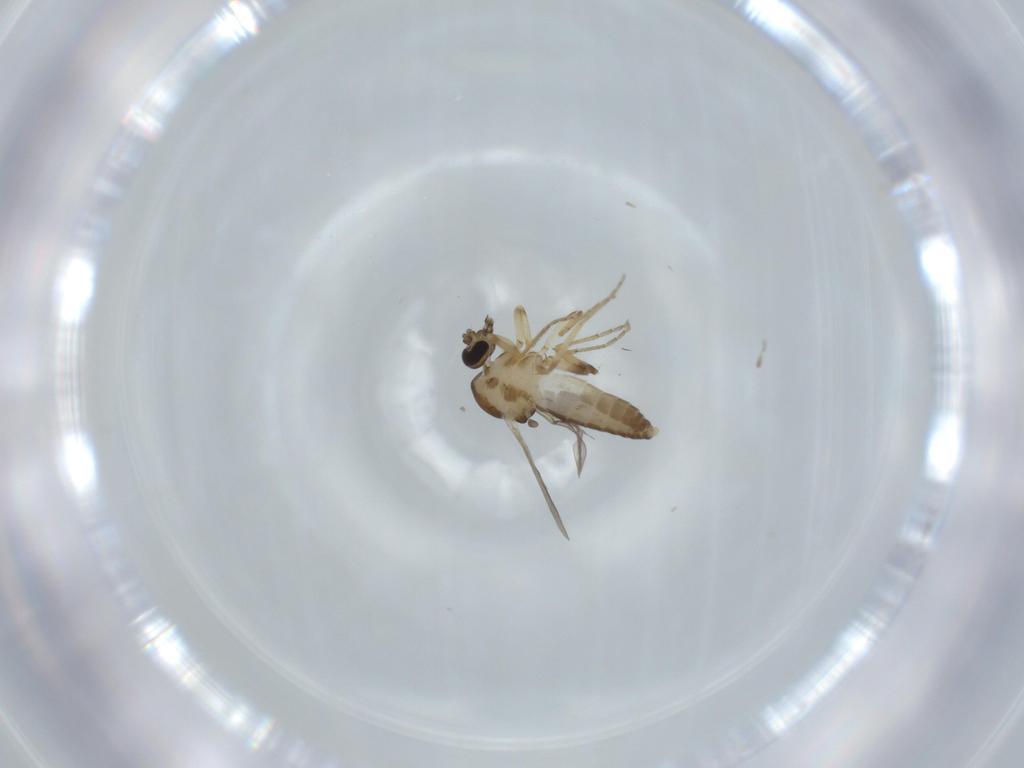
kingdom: Animalia
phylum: Arthropoda
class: Insecta
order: Diptera
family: Ceratopogonidae
